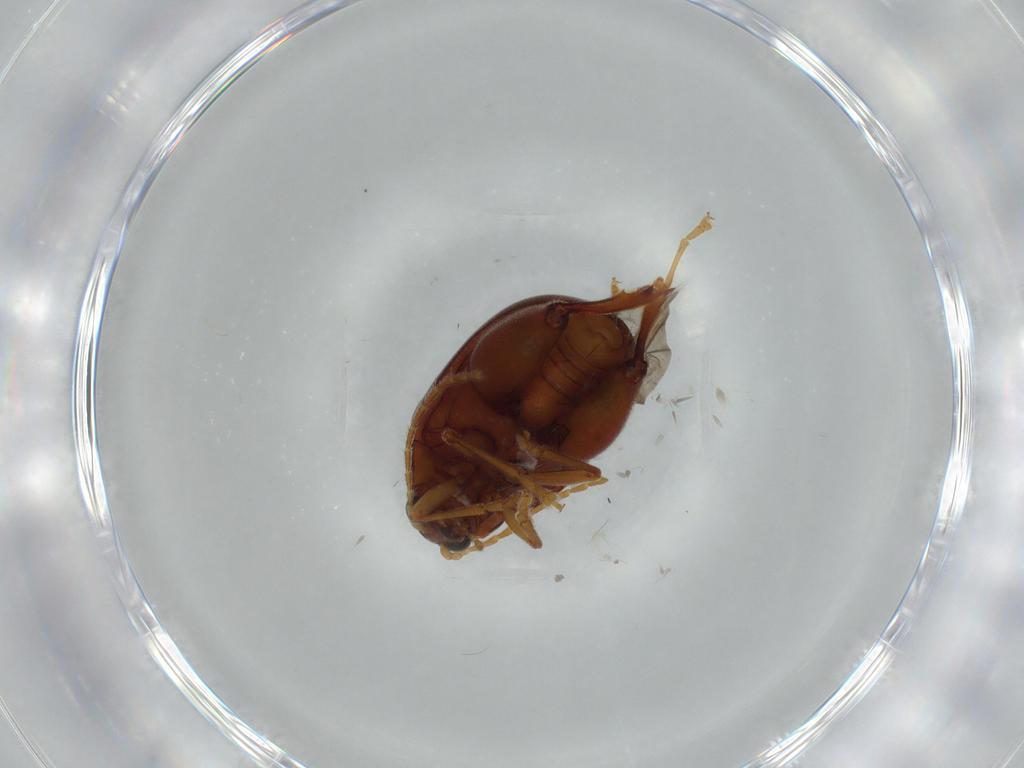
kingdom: Animalia
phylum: Arthropoda
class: Insecta
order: Coleoptera
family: Chrysomelidae
